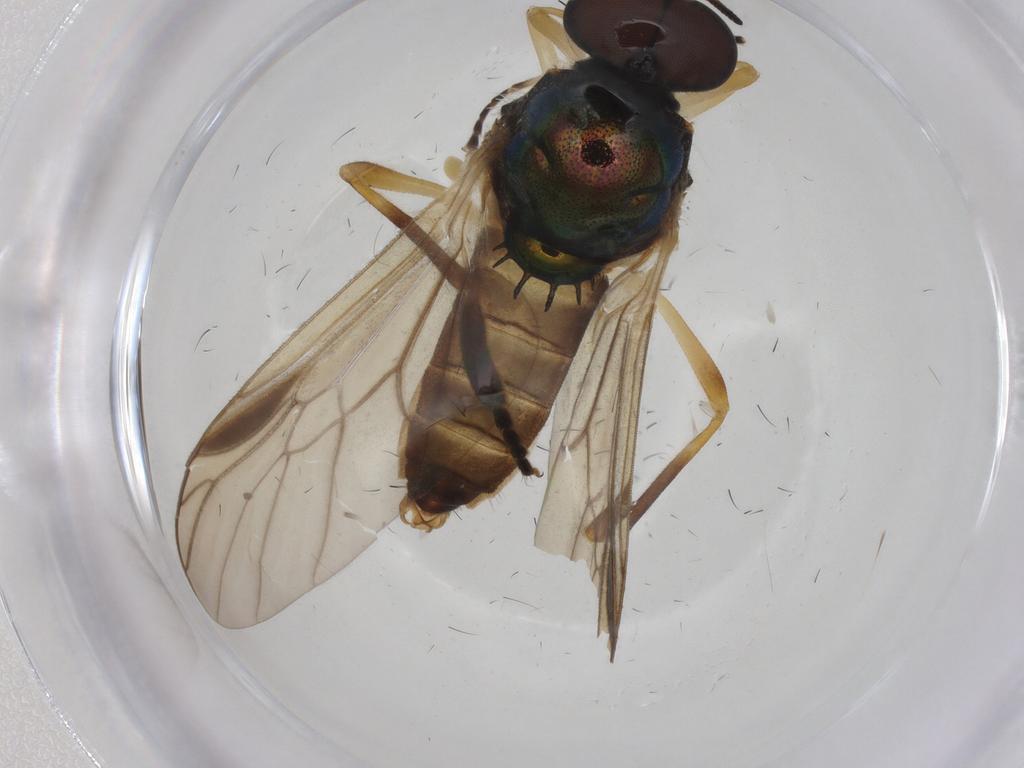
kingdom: Animalia
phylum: Arthropoda
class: Insecta
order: Diptera
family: Stratiomyidae
